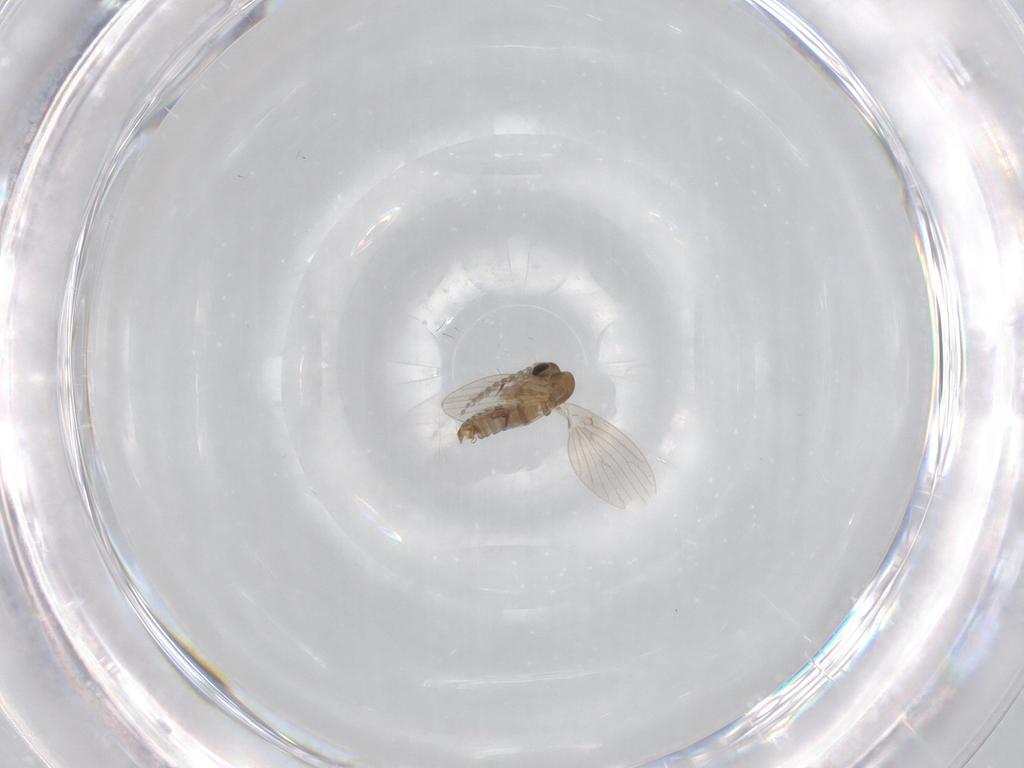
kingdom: Animalia
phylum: Arthropoda
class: Insecta
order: Diptera
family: Psychodidae
